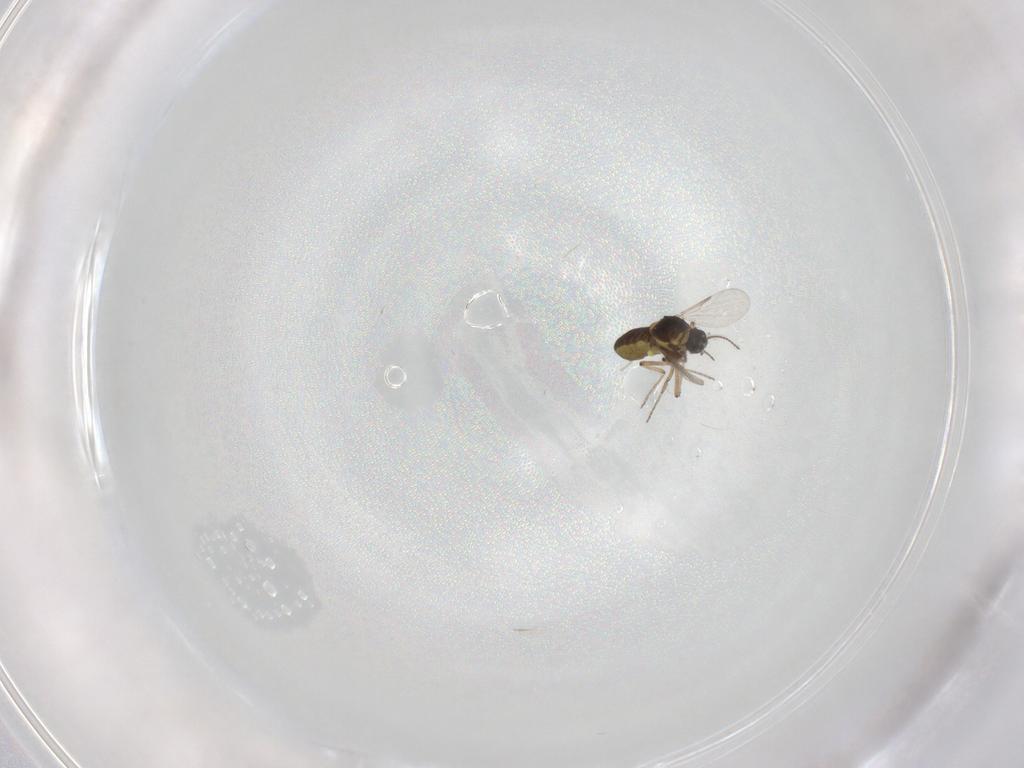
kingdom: Animalia
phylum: Arthropoda
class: Insecta
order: Diptera
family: Ceratopogonidae
